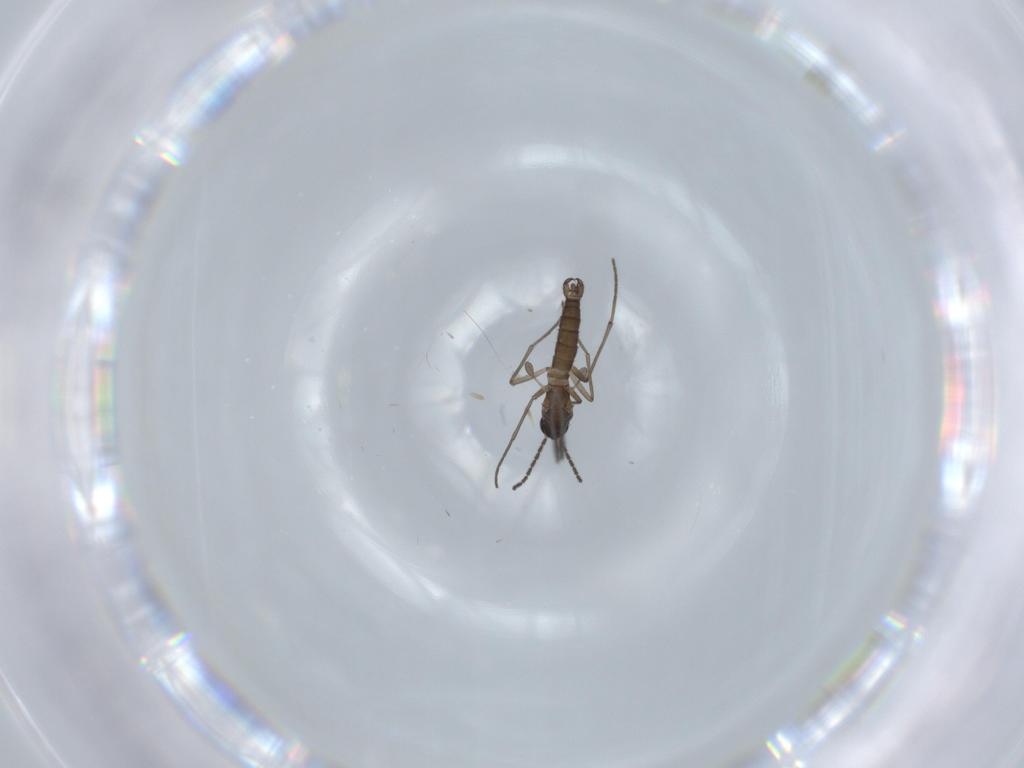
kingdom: Animalia
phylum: Arthropoda
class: Insecta
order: Diptera
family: Sciaridae
